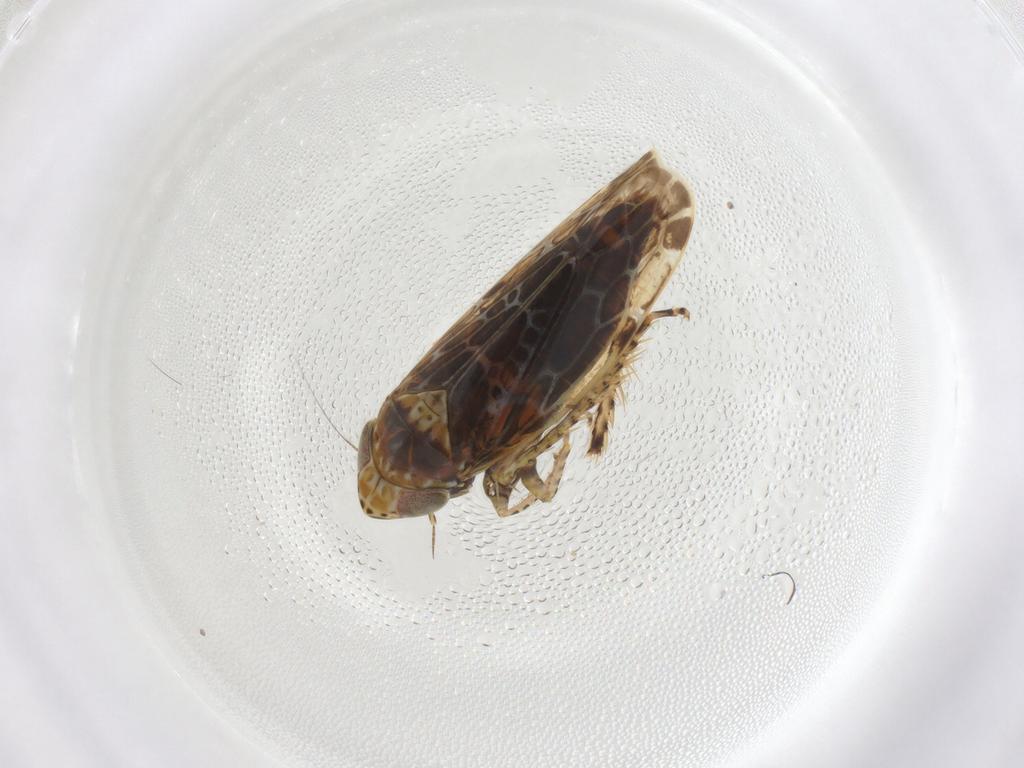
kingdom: Animalia
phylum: Arthropoda
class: Insecta
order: Hemiptera
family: Cicadellidae
